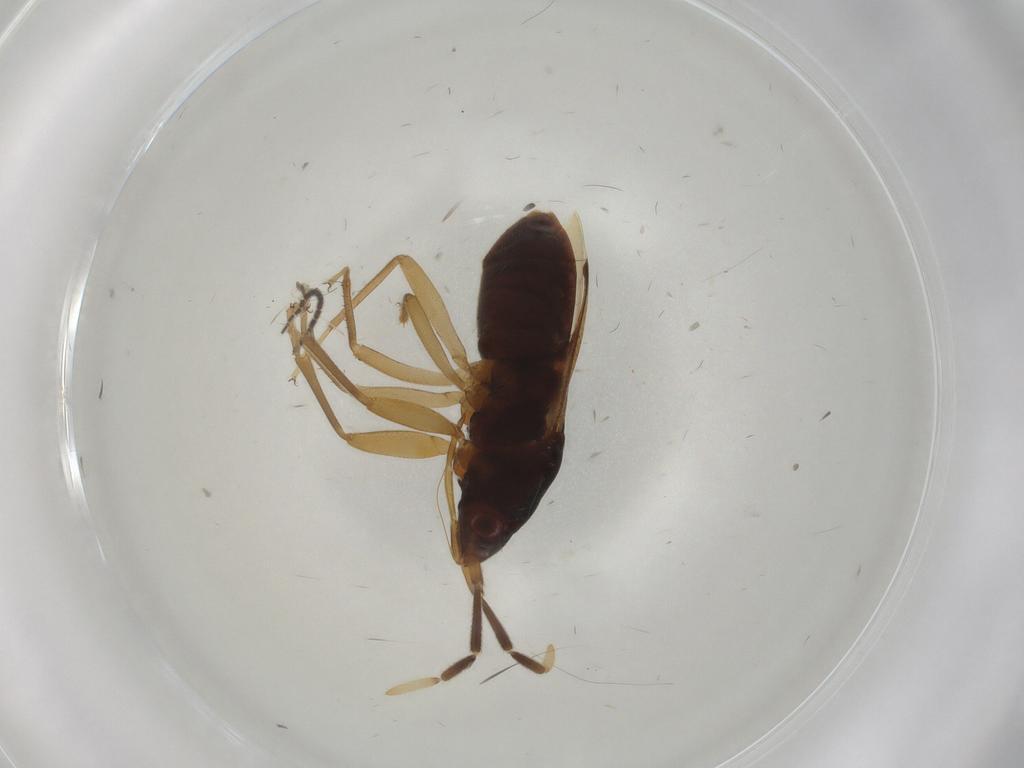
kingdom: Animalia
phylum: Arthropoda
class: Insecta
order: Hemiptera
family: Rhyparochromidae
